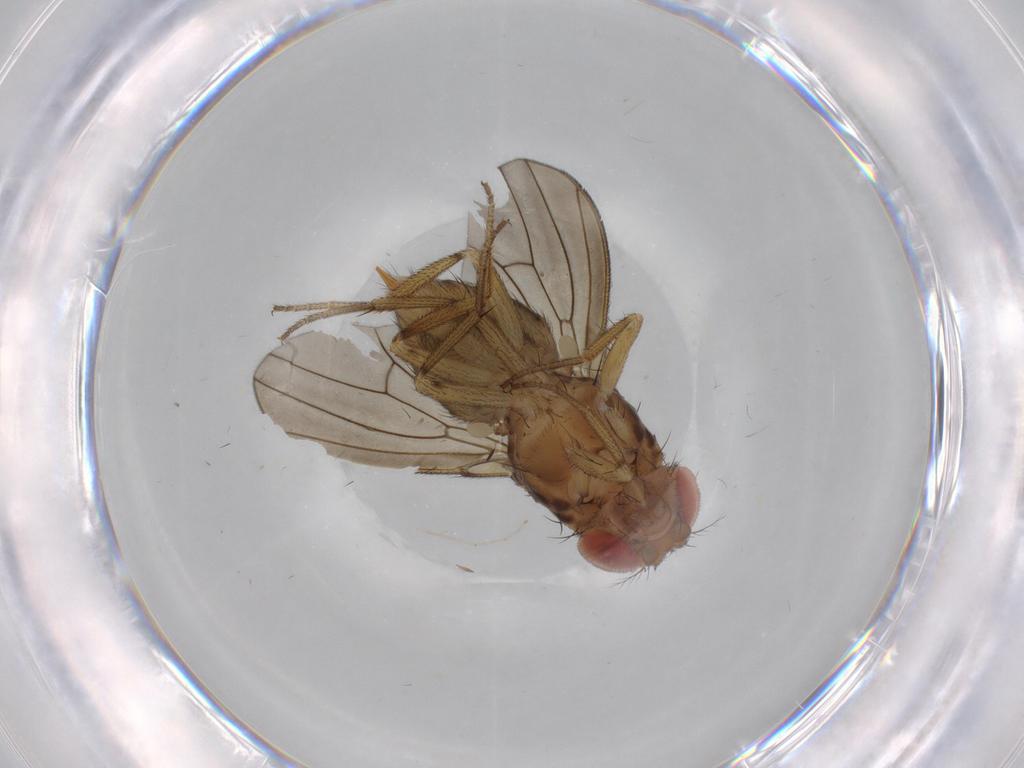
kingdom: Animalia
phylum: Arthropoda
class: Insecta
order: Diptera
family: Drosophilidae
